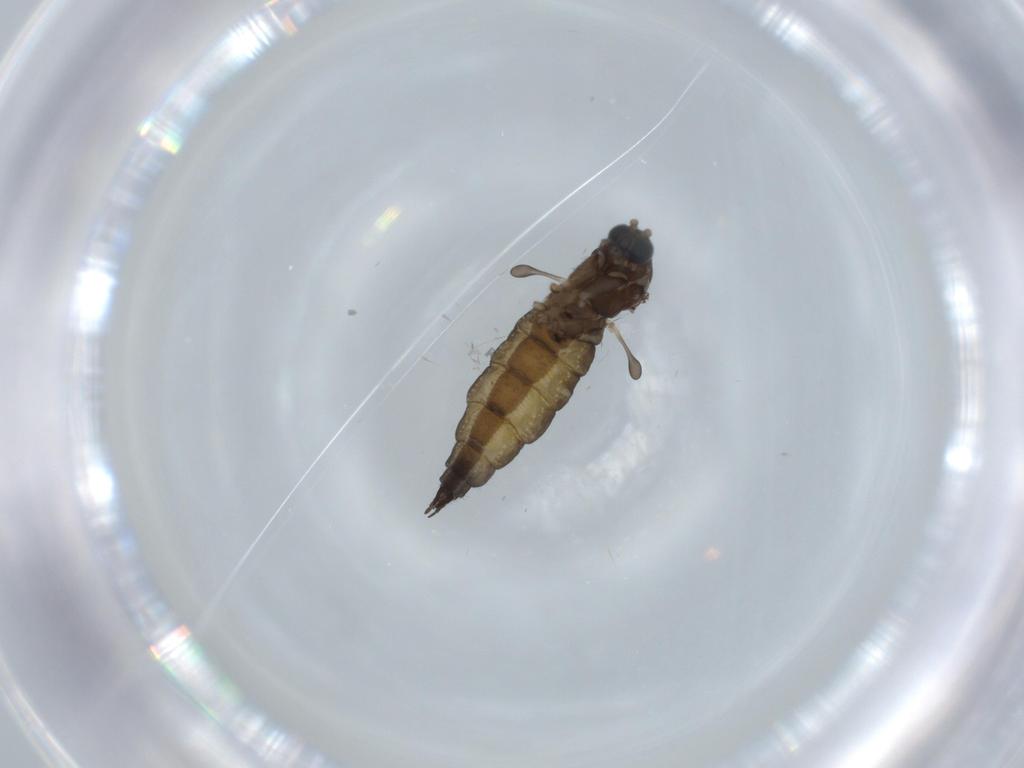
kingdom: Animalia
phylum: Arthropoda
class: Insecta
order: Diptera
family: Sciaridae
